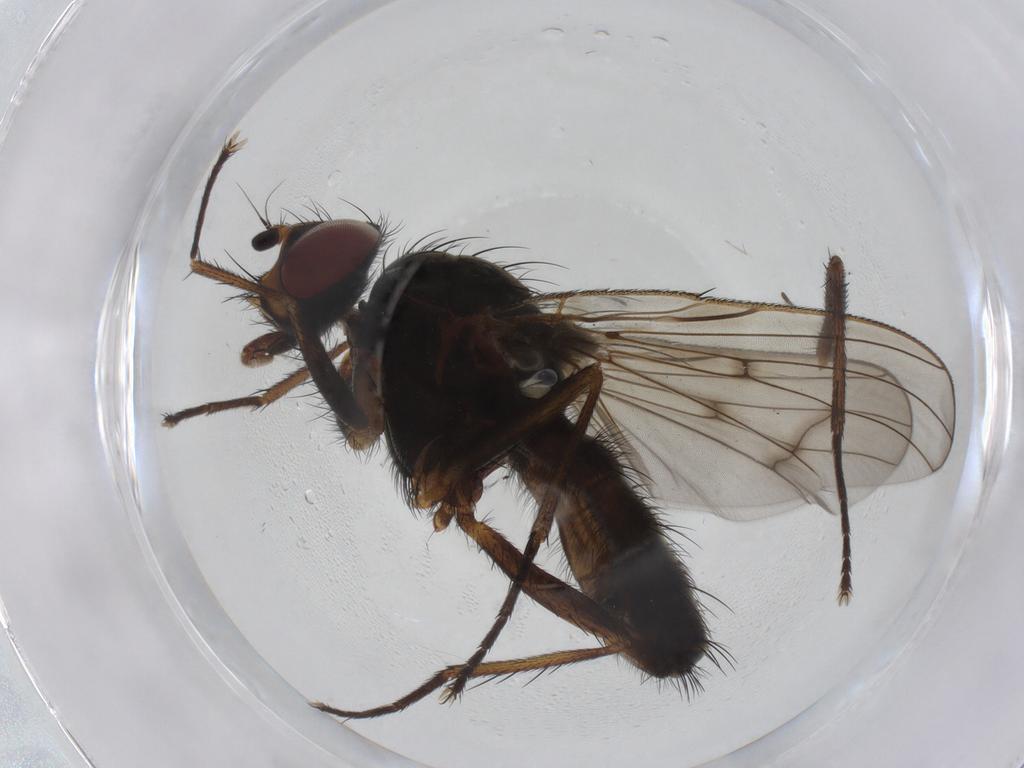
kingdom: Animalia
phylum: Arthropoda
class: Insecta
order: Diptera
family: Anthomyiidae
